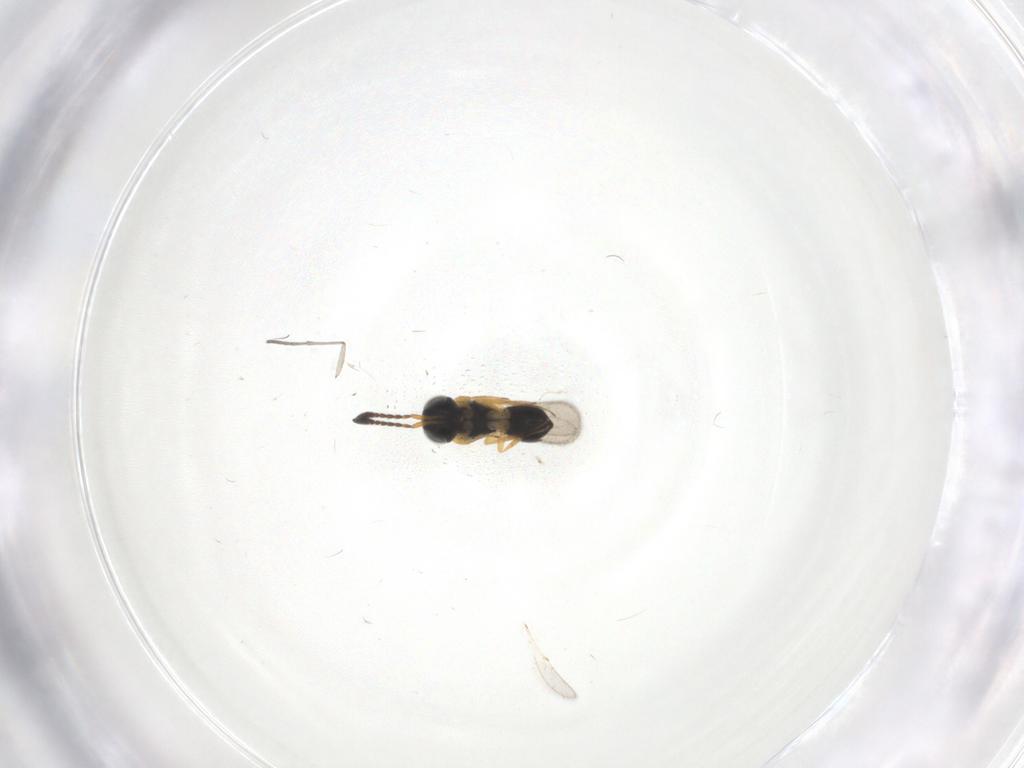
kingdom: Animalia
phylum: Arthropoda
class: Insecta
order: Hymenoptera
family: Scelionidae
